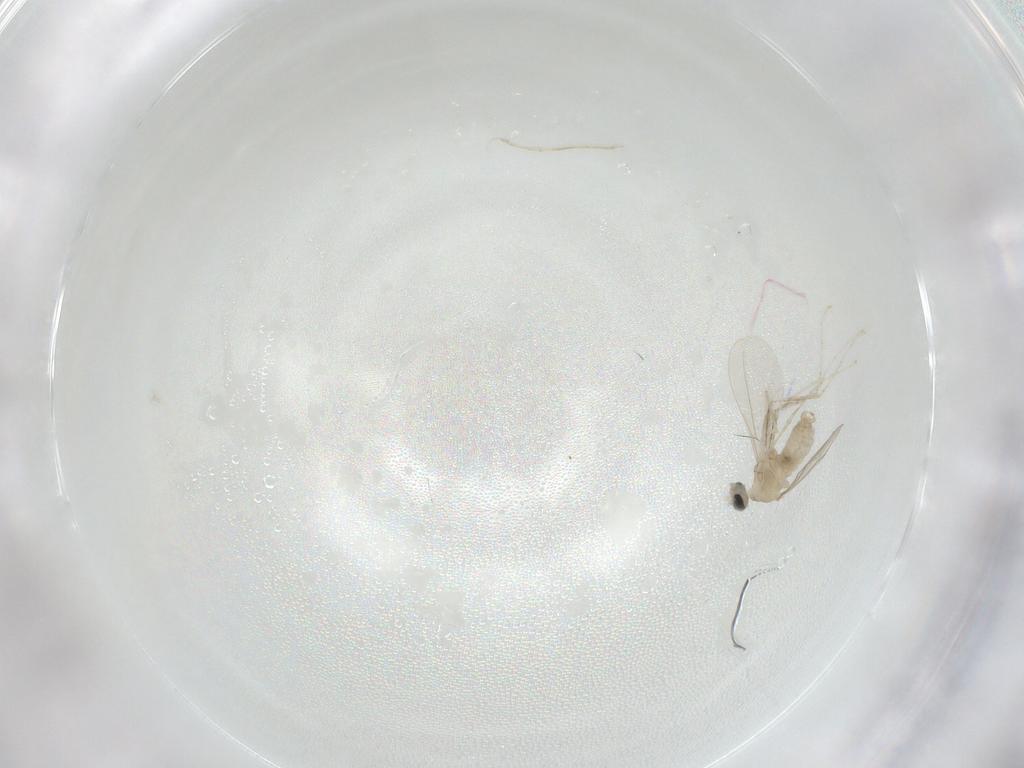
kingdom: Animalia
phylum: Arthropoda
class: Insecta
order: Diptera
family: Cecidomyiidae
